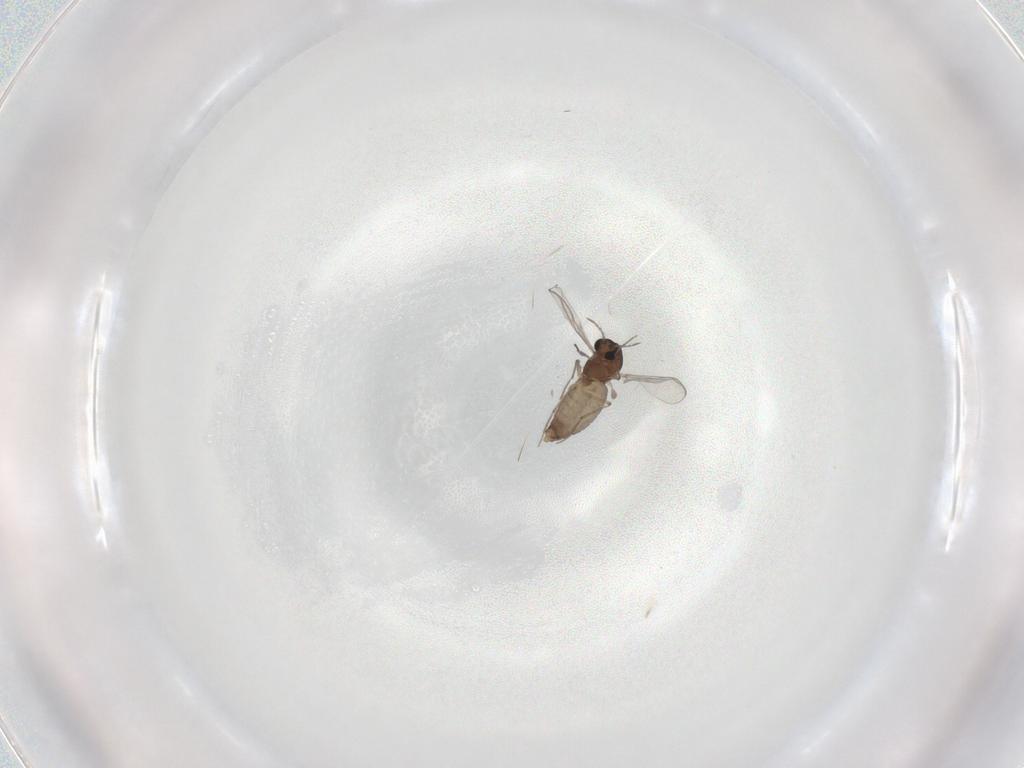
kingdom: Animalia
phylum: Arthropoda
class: Insecta
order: Diptera
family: Chironomidae
